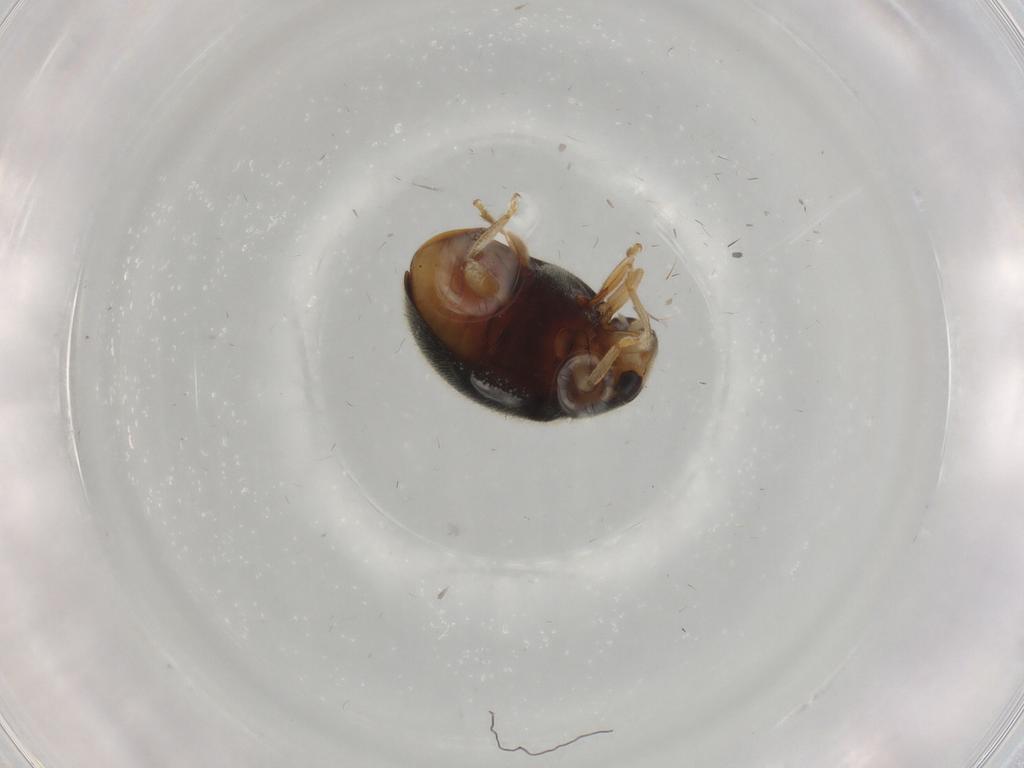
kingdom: Animalia
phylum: Arthropoda
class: Insecta
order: Coleoptera
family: Coccinellidae
